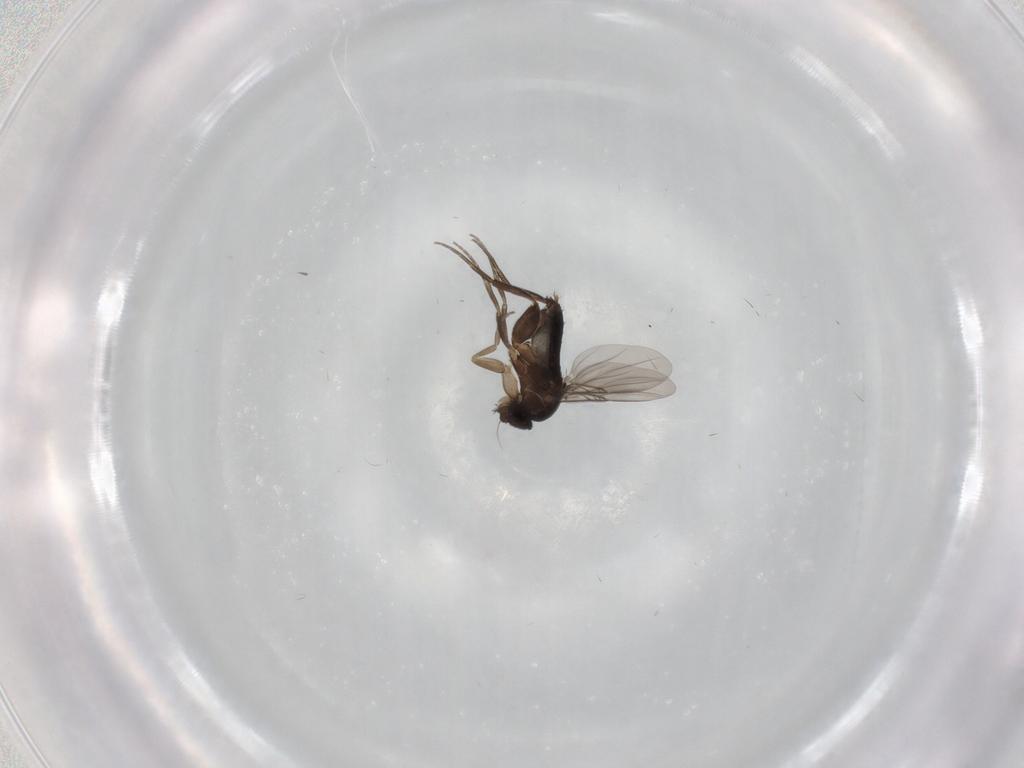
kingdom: Animalia
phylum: Arthropoda
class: Insecta
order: Diptera
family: Phoridae
